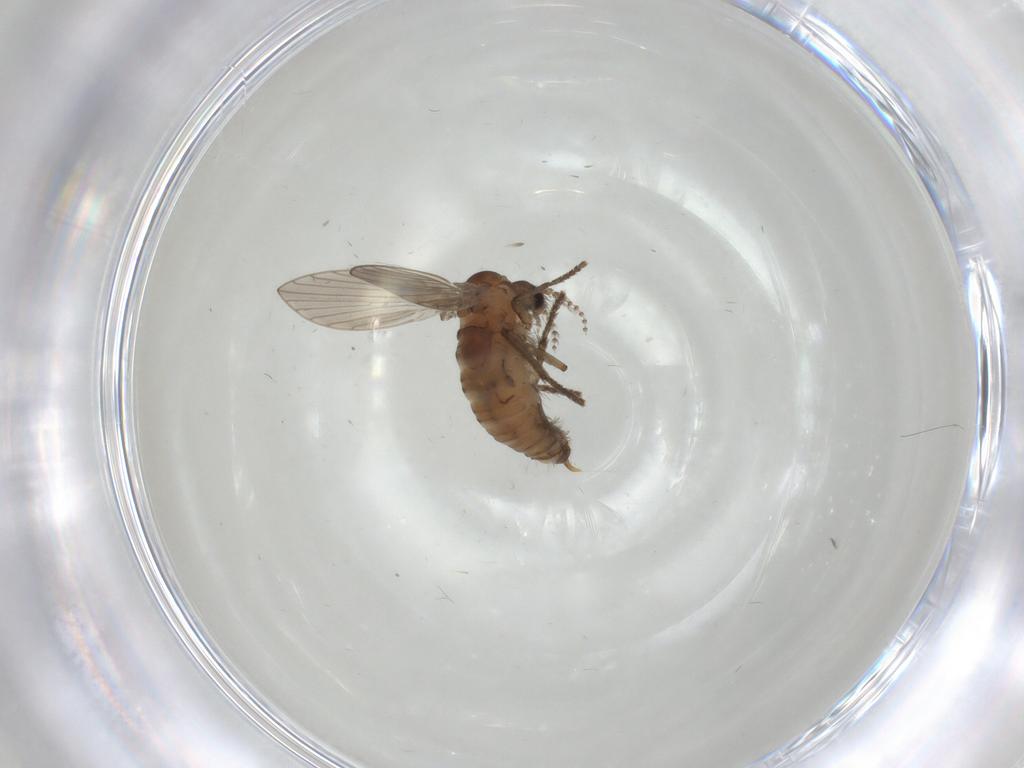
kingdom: Animalia
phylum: Arthropoda
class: Insecta
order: Diptera
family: Psychodidae
